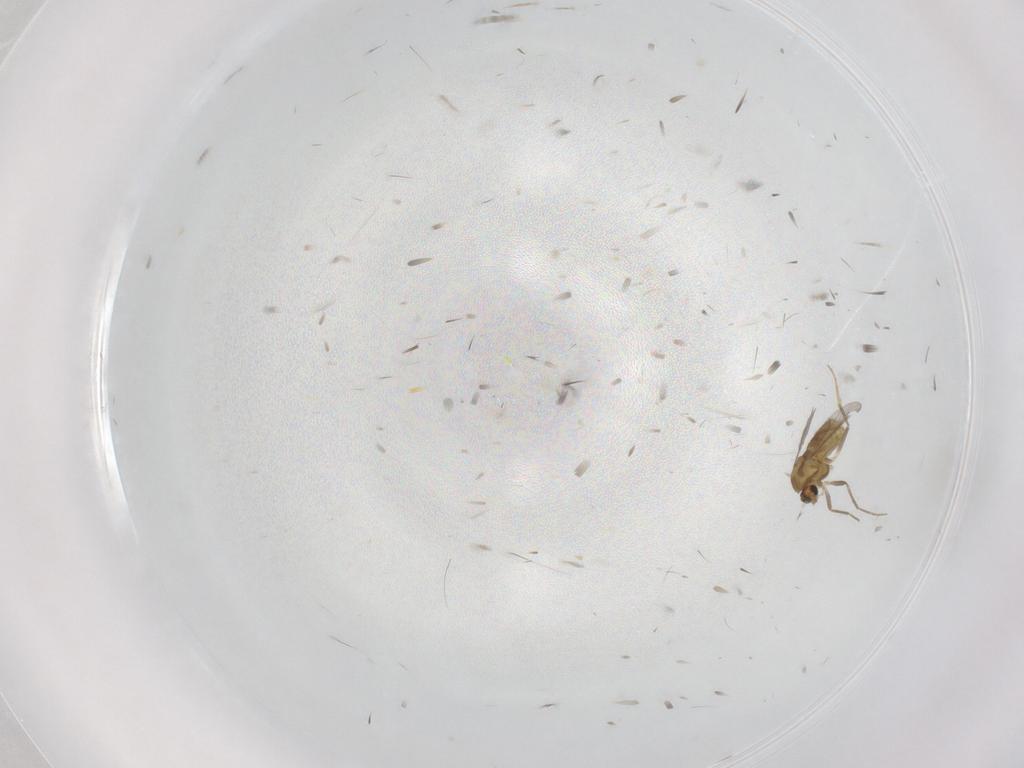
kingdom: Animalia
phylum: Arthropoda
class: Insecta
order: Diptera
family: Sciaridae
